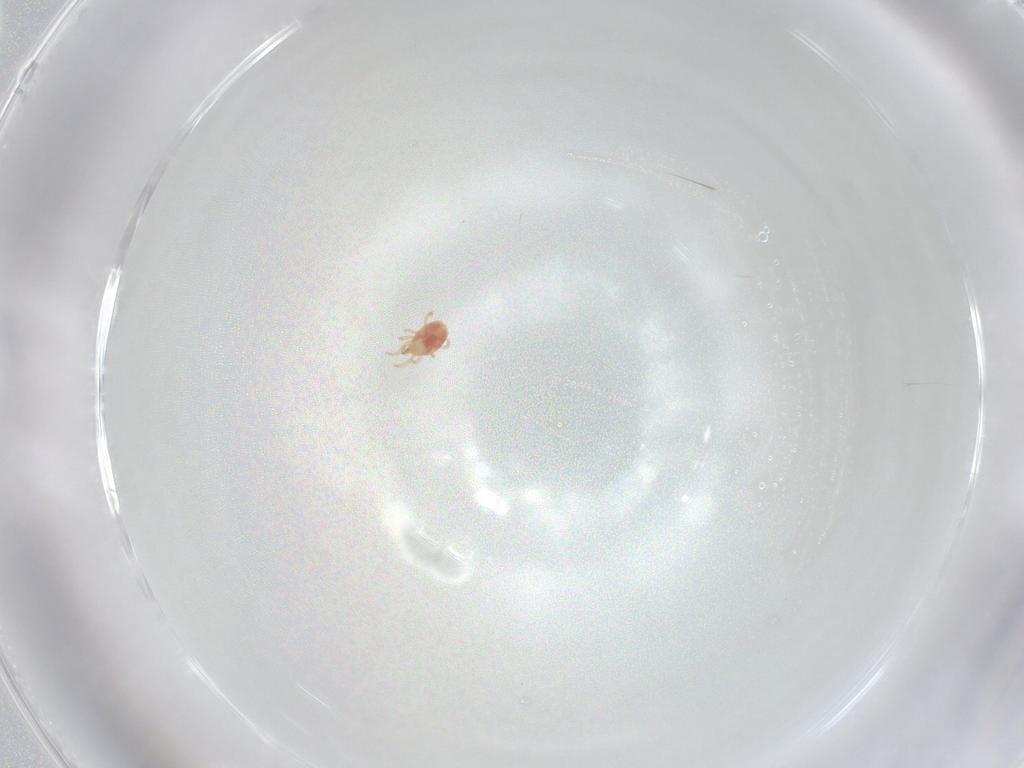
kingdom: Animalia
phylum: Arthropoda
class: Arachnida
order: Mesostigmata
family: Phytoseiidae
